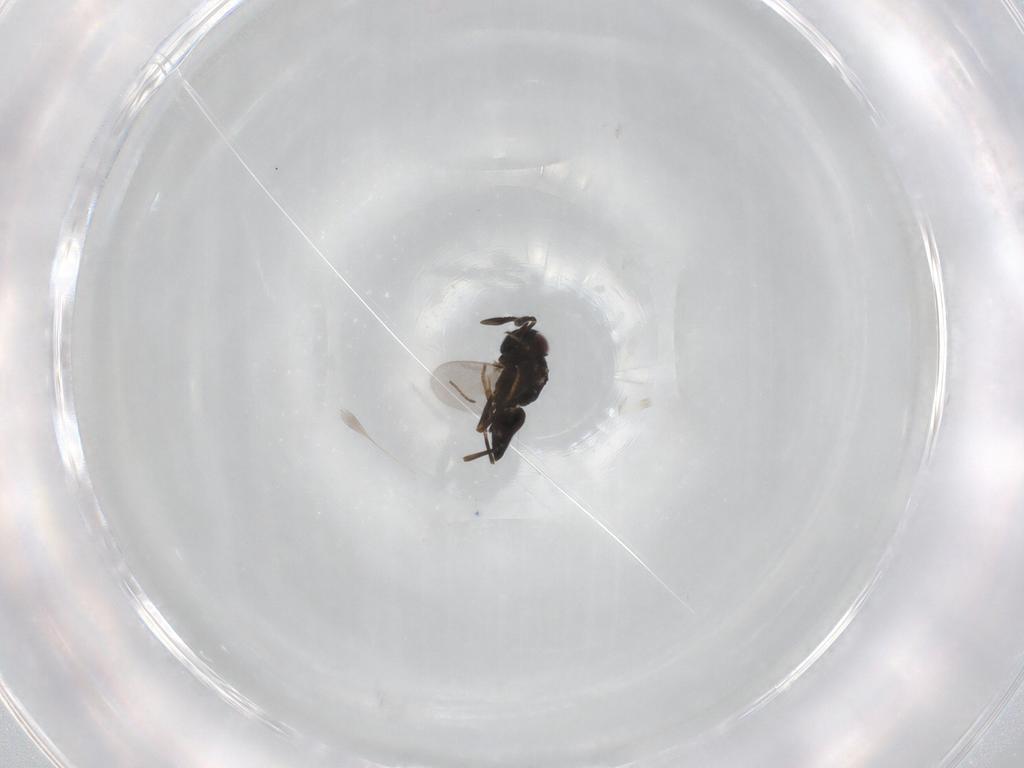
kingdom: Animalia
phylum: Arthropoda
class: Insecta
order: Hymenoptera
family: Encyrtidae
